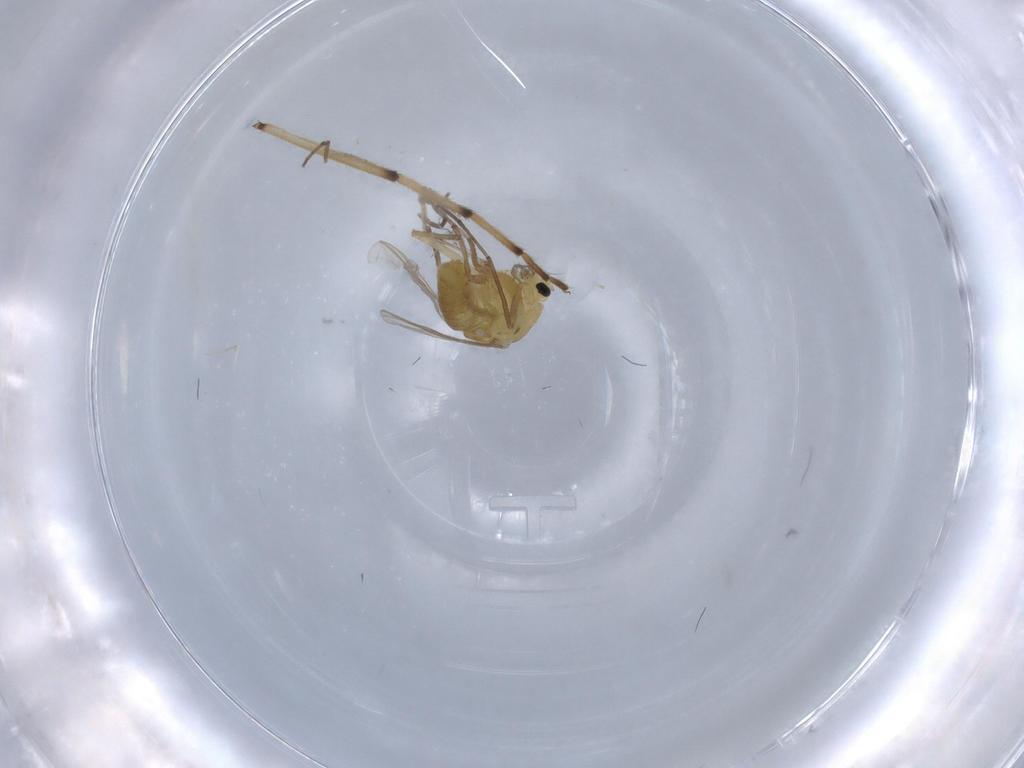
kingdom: Animalia
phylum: Arthropoda
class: Insecta
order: Diptera
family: Chironomidae
